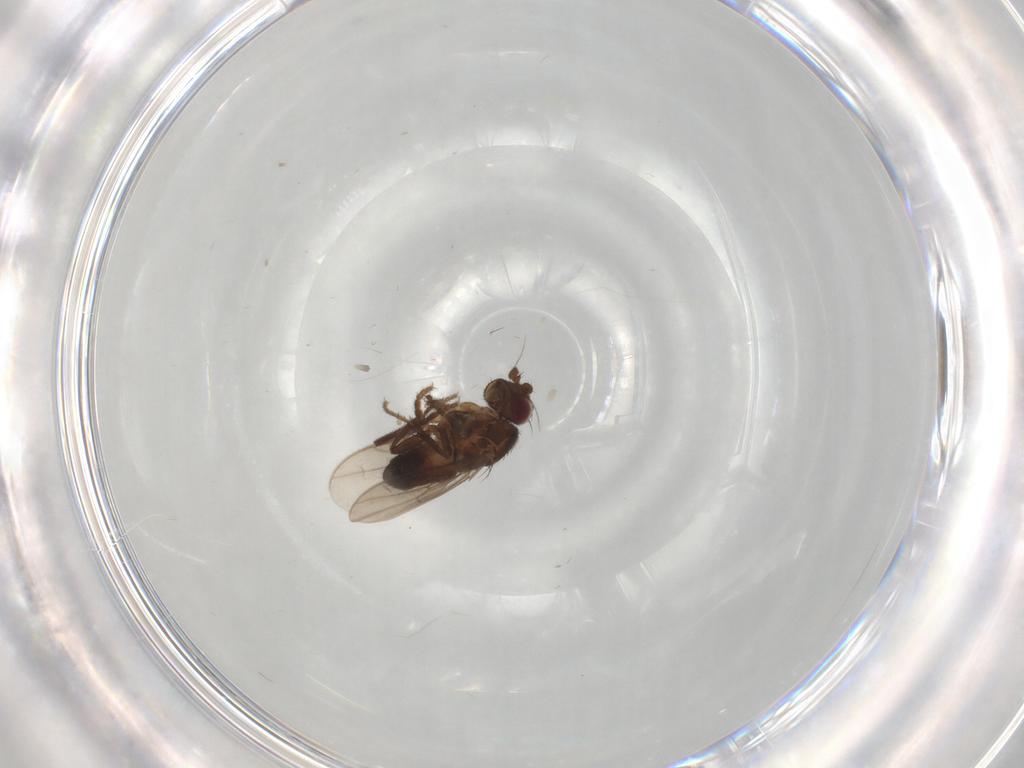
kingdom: Animalia
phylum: Arthropoda
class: Insecta
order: Diptera
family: Sphaeroceridae
